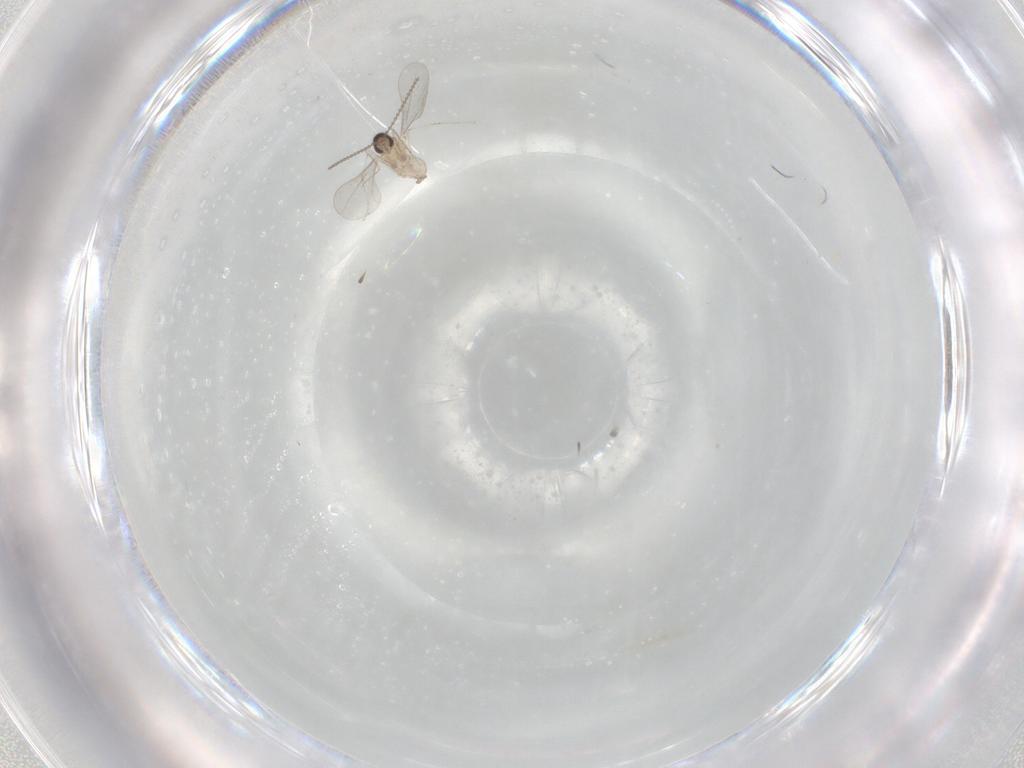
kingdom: Animalia
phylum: Arthropoda
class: Insecta
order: Diptera
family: Cecidomyiidae
